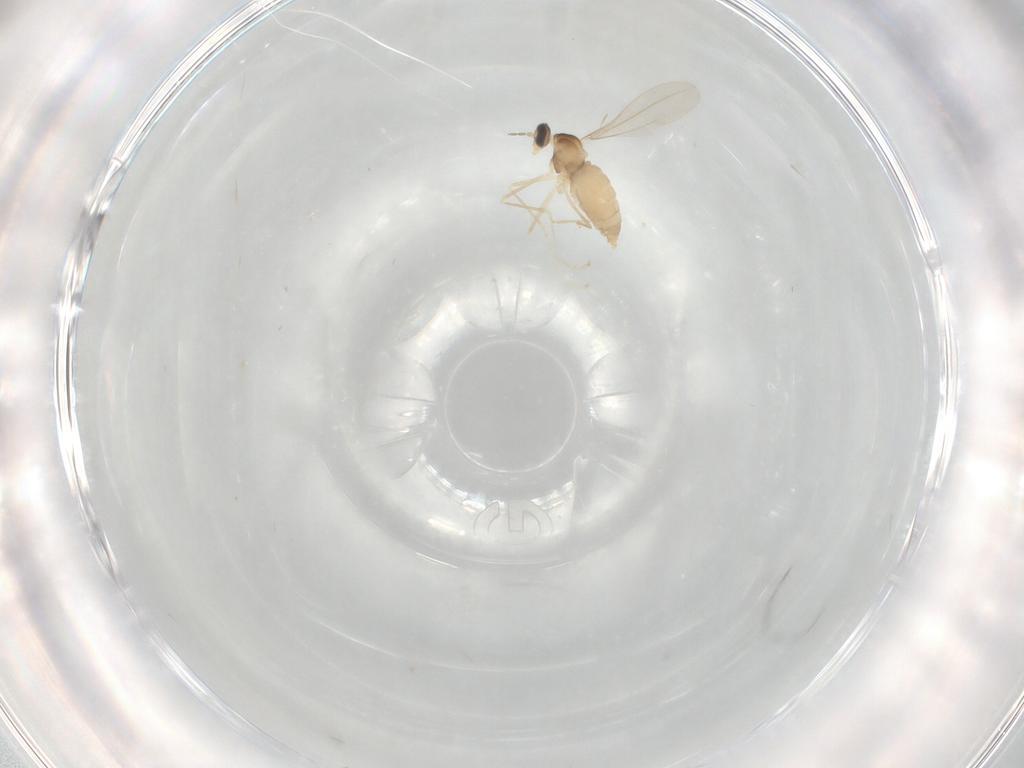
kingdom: Animalia
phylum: Arthropoda
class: Insecta
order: Diptera
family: Cecidomyiidae
